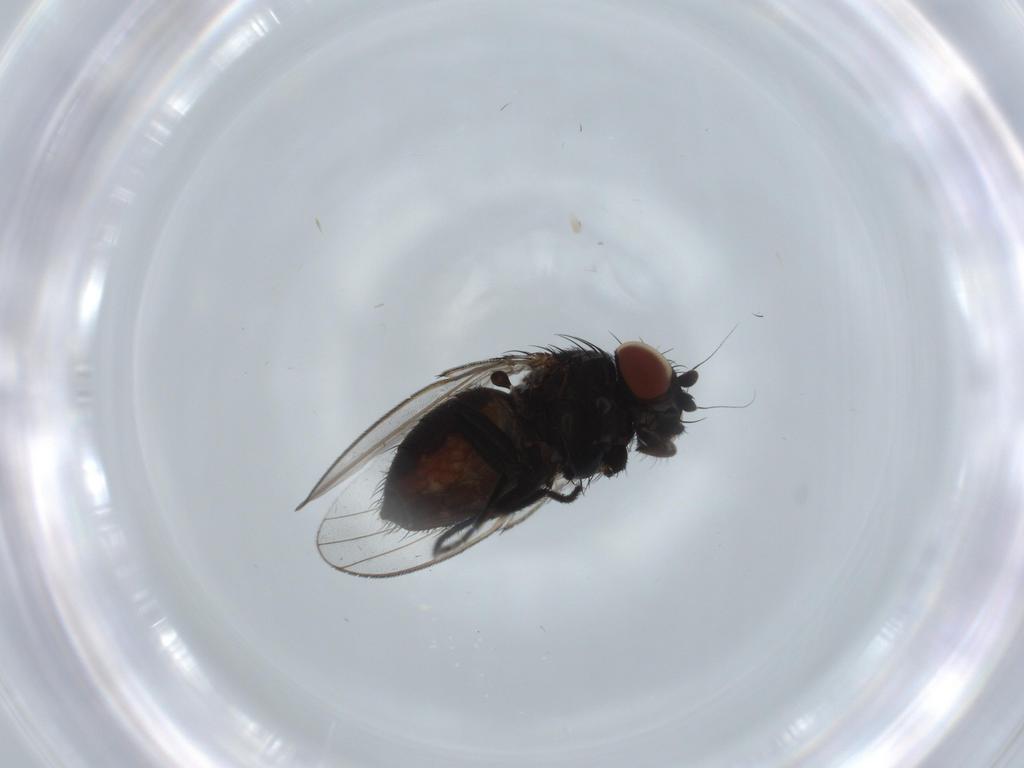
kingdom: Animalia
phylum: Arthropoda
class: Insecta
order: Diptera
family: Milichiidae
